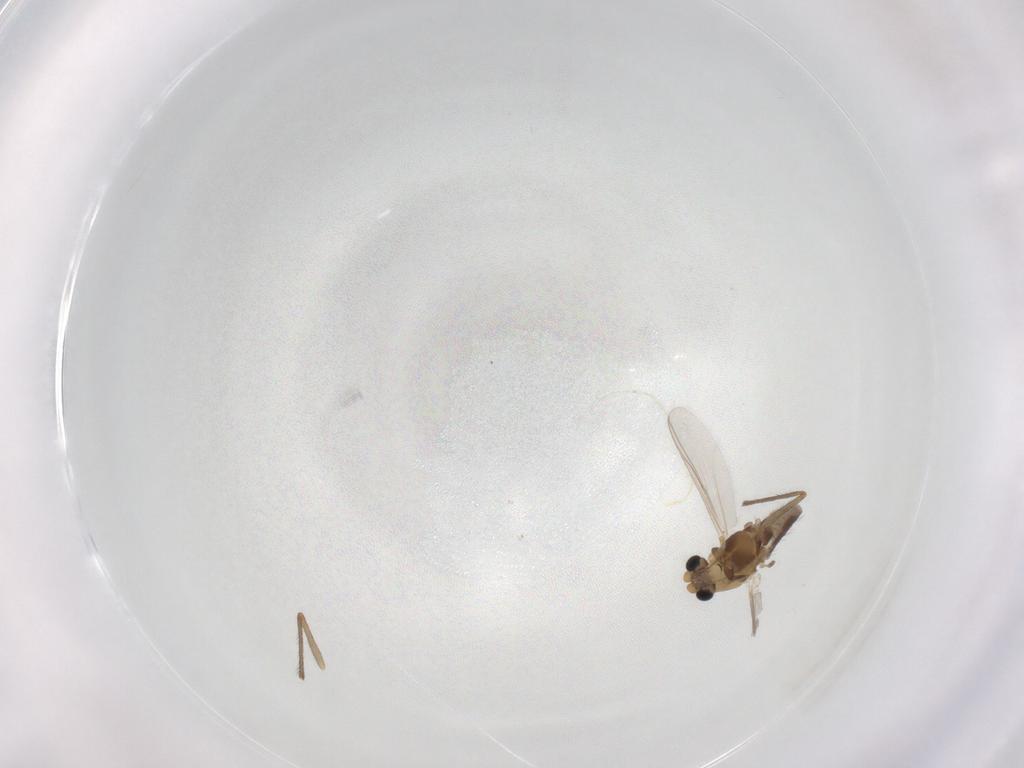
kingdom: Animalia
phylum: Arthropoda
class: Insecta
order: Diptera
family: Chironomidae
